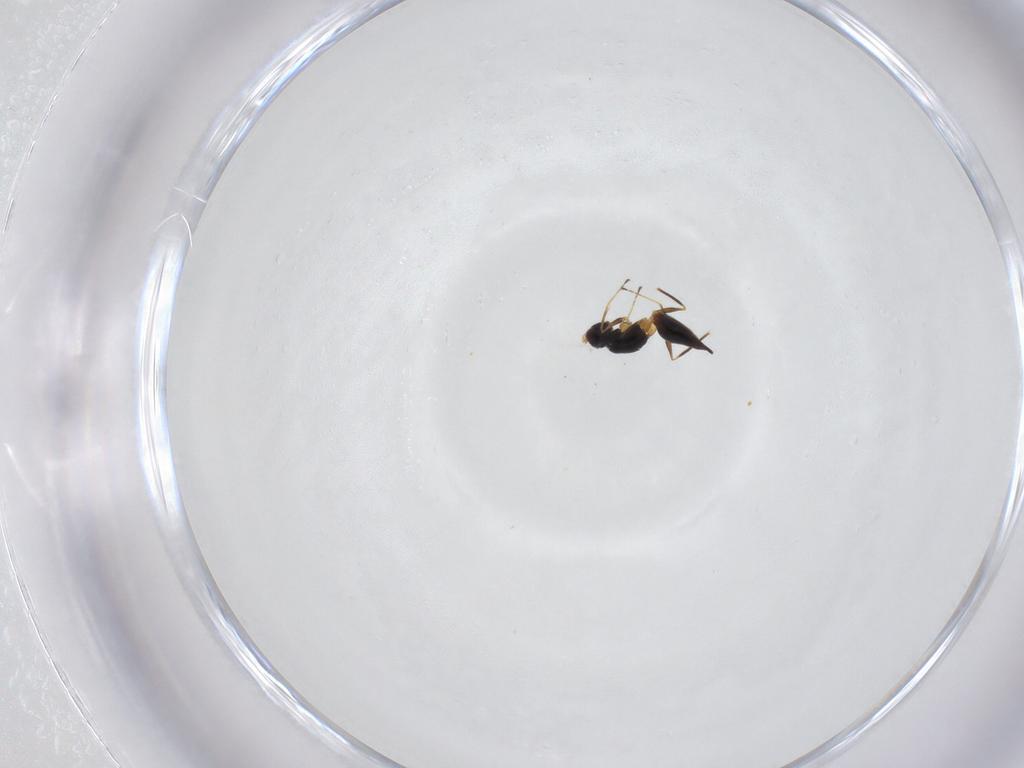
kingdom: Animalia
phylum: Arthropoda
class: Insecta
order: Hymenoptera
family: Mymaridae
